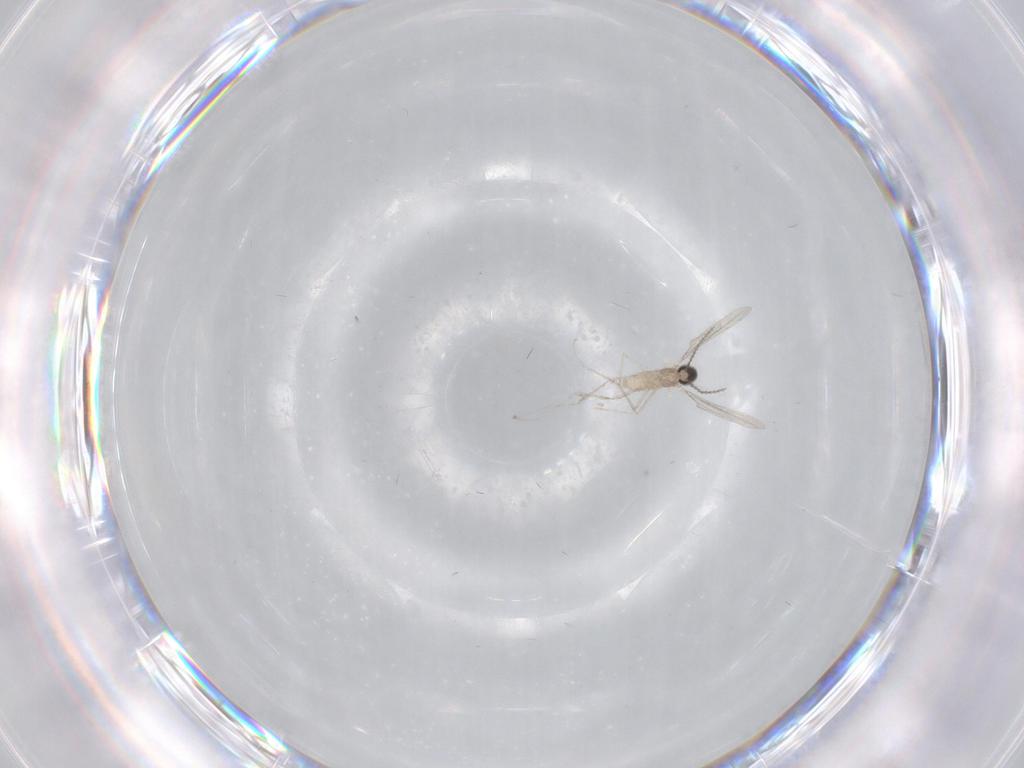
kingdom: Animalia
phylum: Arthropoda
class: Insecta
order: Diptera
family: Cecidomyiidae
